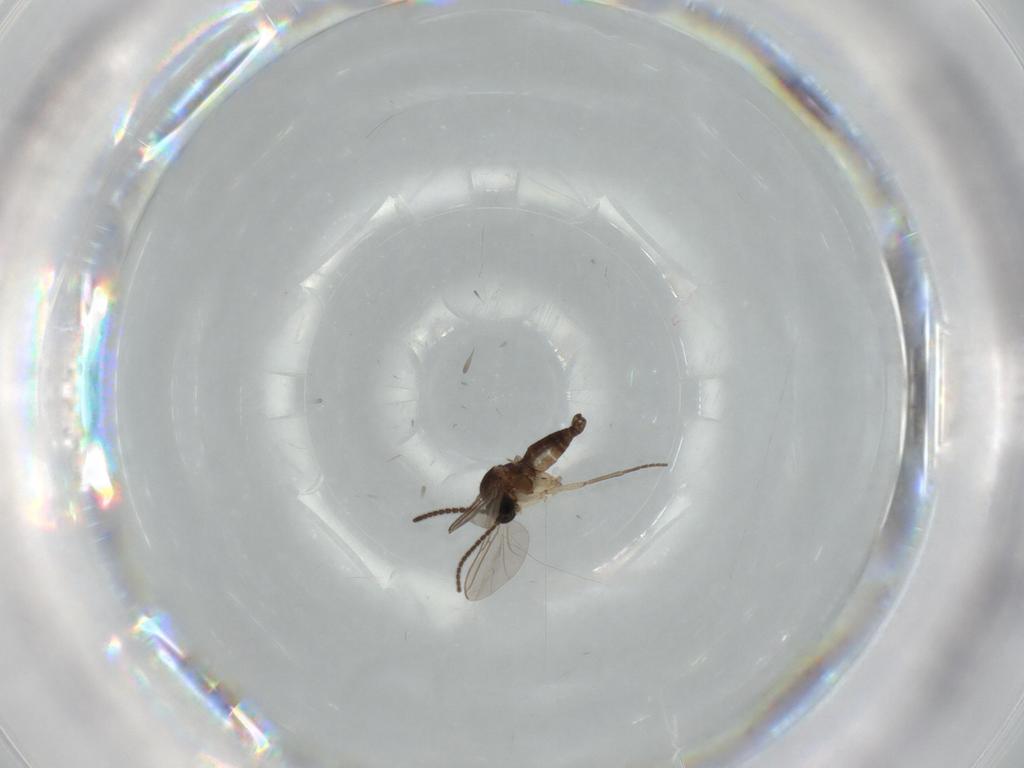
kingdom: Animalia
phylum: Arthropoda
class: Insecta
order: Diptera
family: Sciaridae
